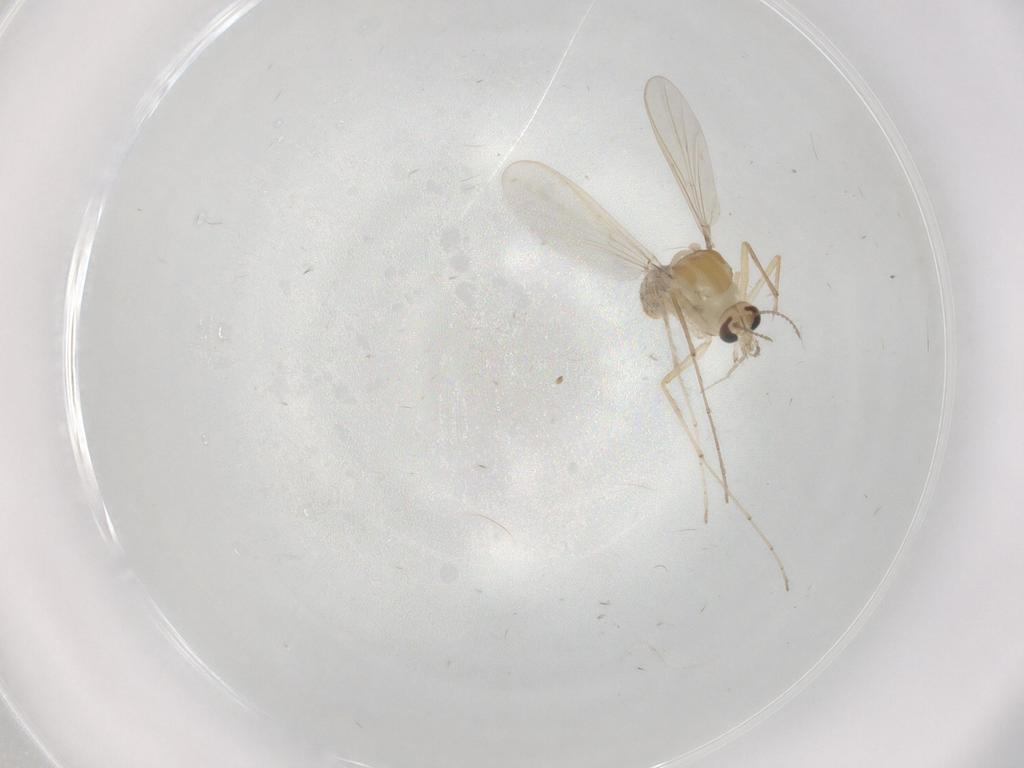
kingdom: Animalia
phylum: Arthropoda
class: Insecta
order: Diptera
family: Chironomidae
